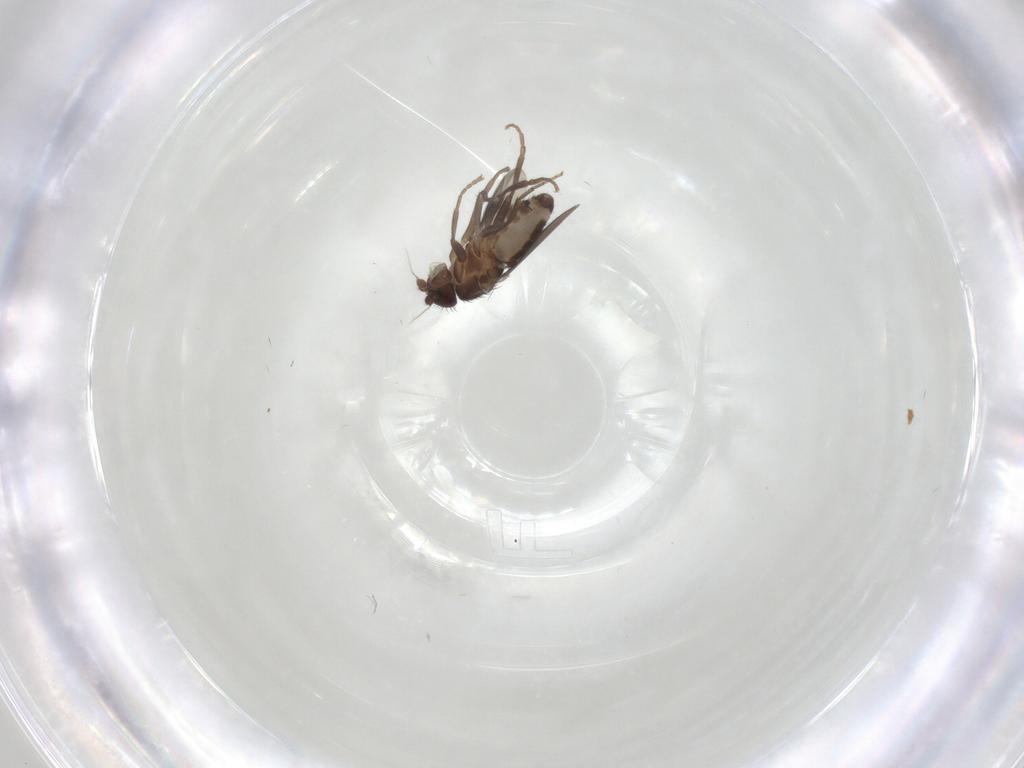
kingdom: Animalia
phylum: Arthropoda
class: Insecta
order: Diptera
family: Sphaeroceridae
